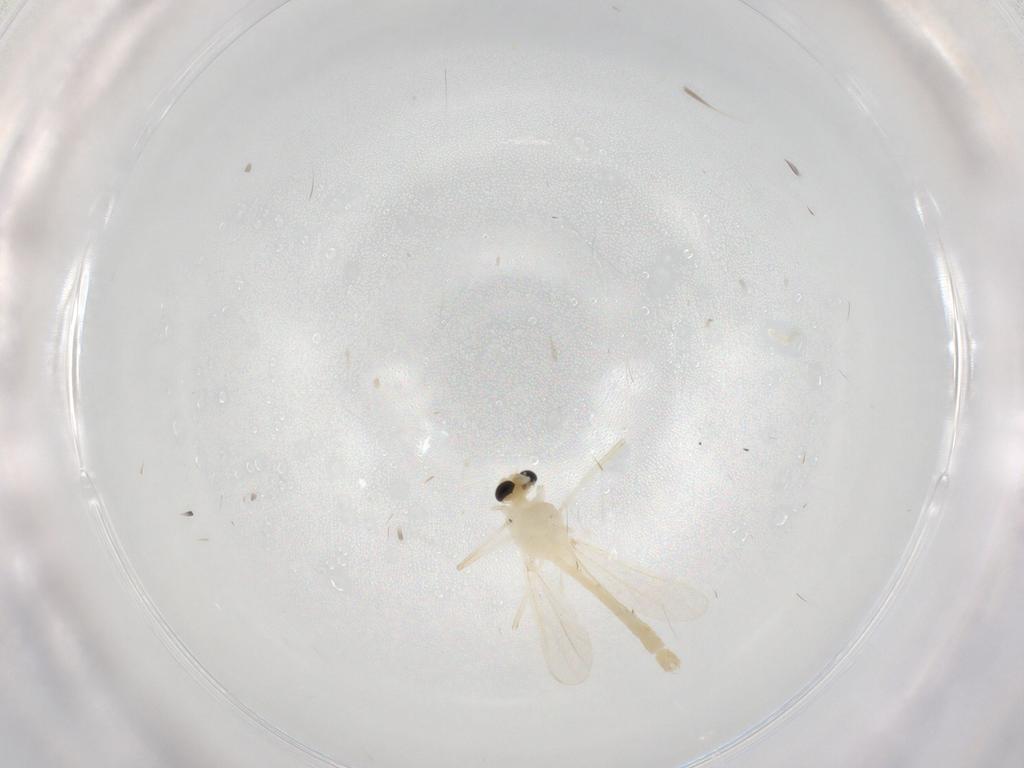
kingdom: Animalia
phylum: Arthropoda
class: Insecta
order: Diptera
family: Chironomidae
